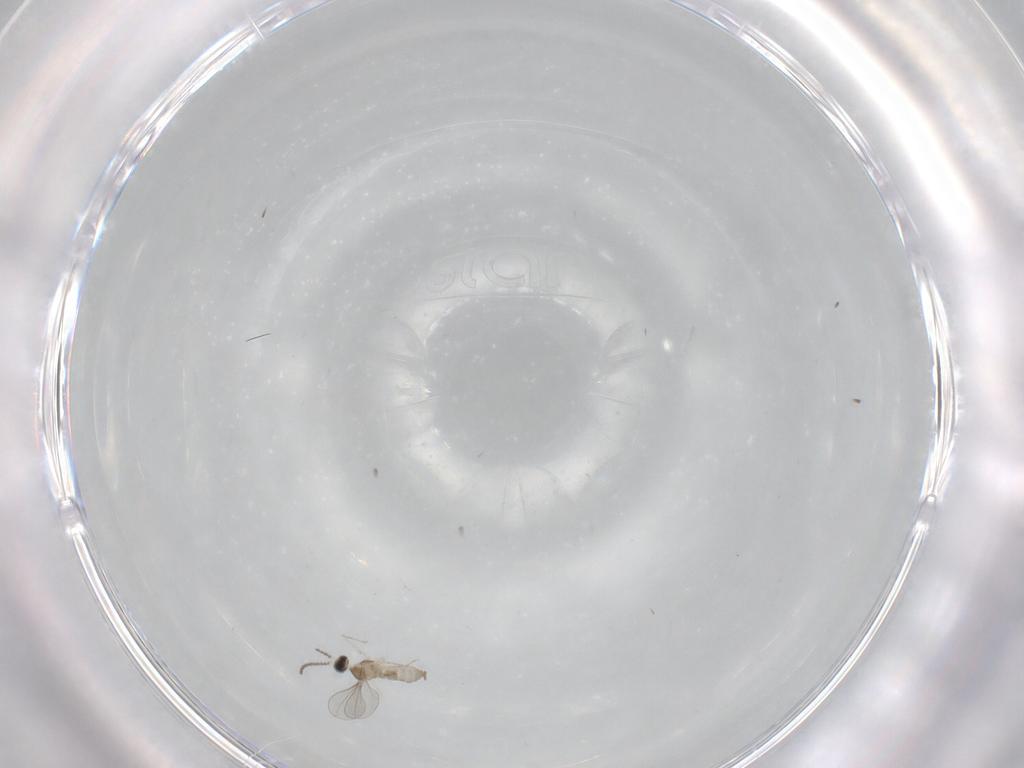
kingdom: Animalia
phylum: Arthropoda
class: Insecta
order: Diptera
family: Cecidomyiidae
